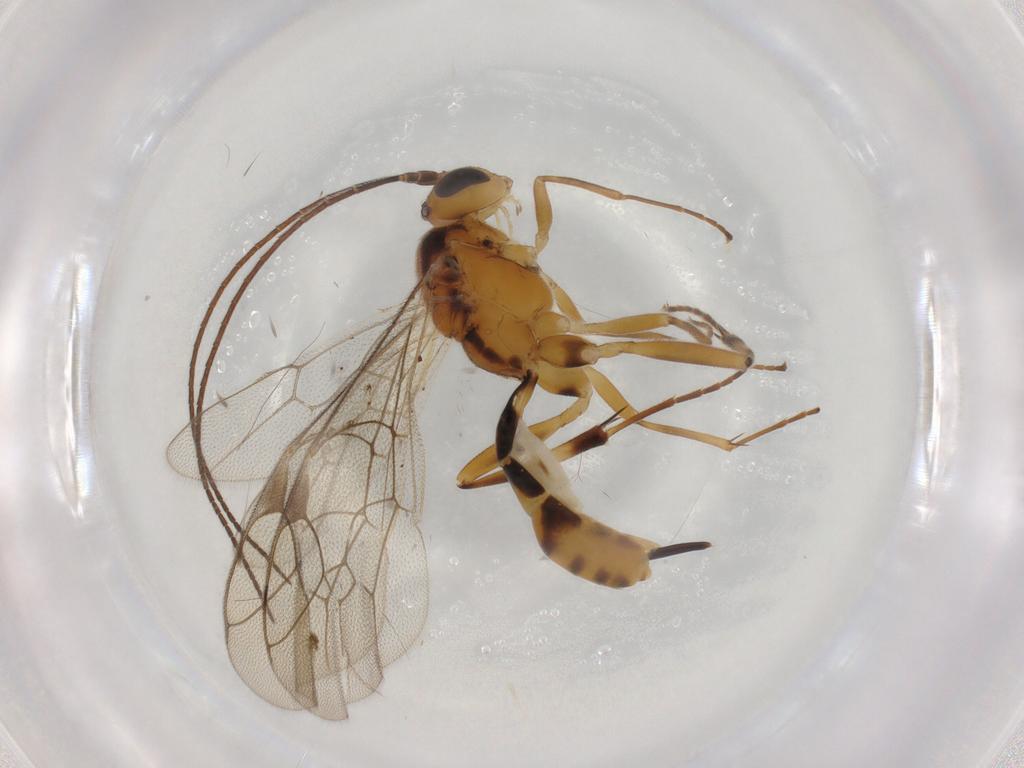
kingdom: Animalia
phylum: Arthropoda
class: Insecta
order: Hymenoptera
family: Ichneumonidae
